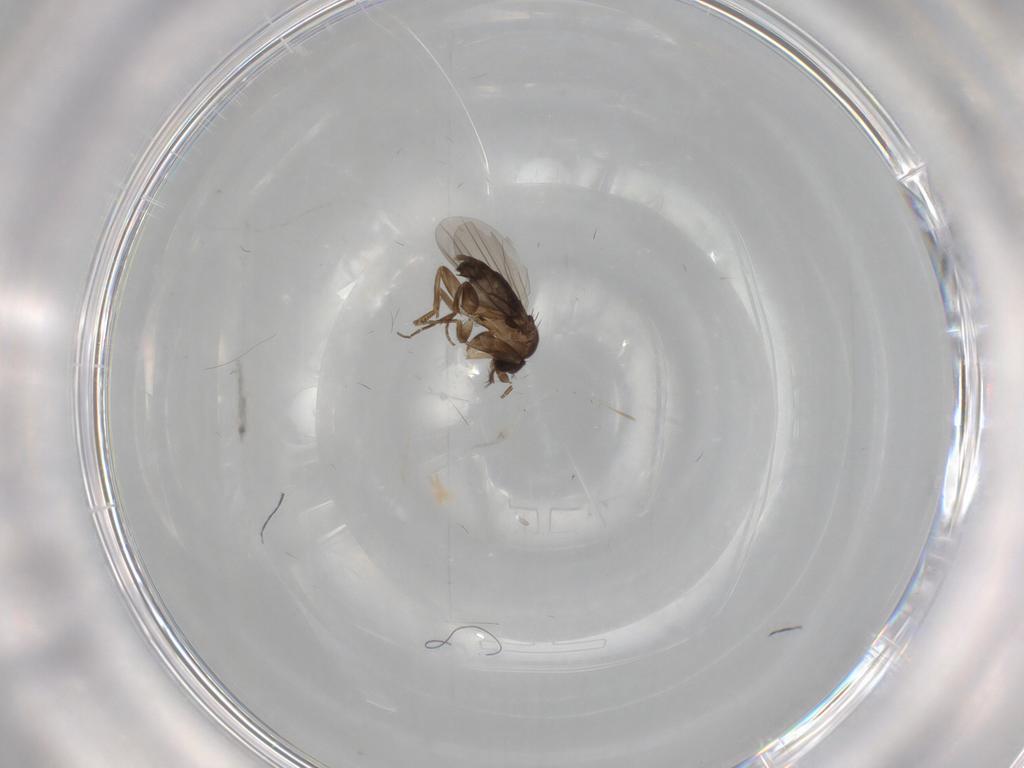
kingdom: Animalia
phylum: Arthropoda
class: Insecta
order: Diptera
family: Phoridae
